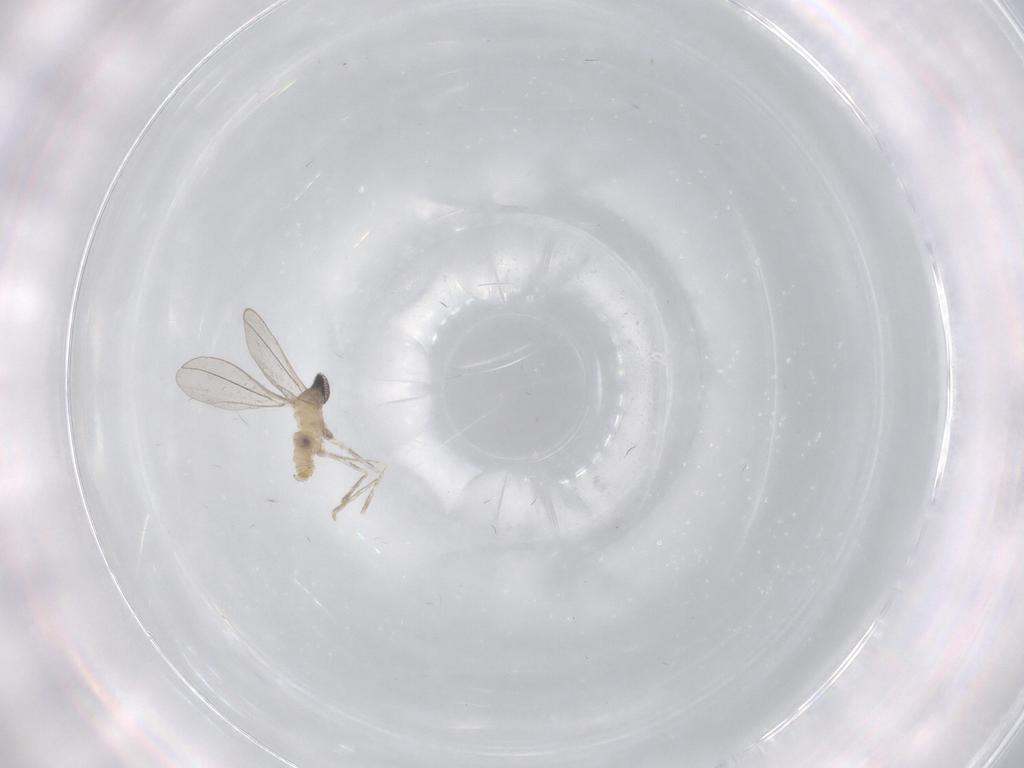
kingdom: Animalia
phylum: Arthropoda
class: Insecta
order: Diptera
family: Cecidomyiidae
